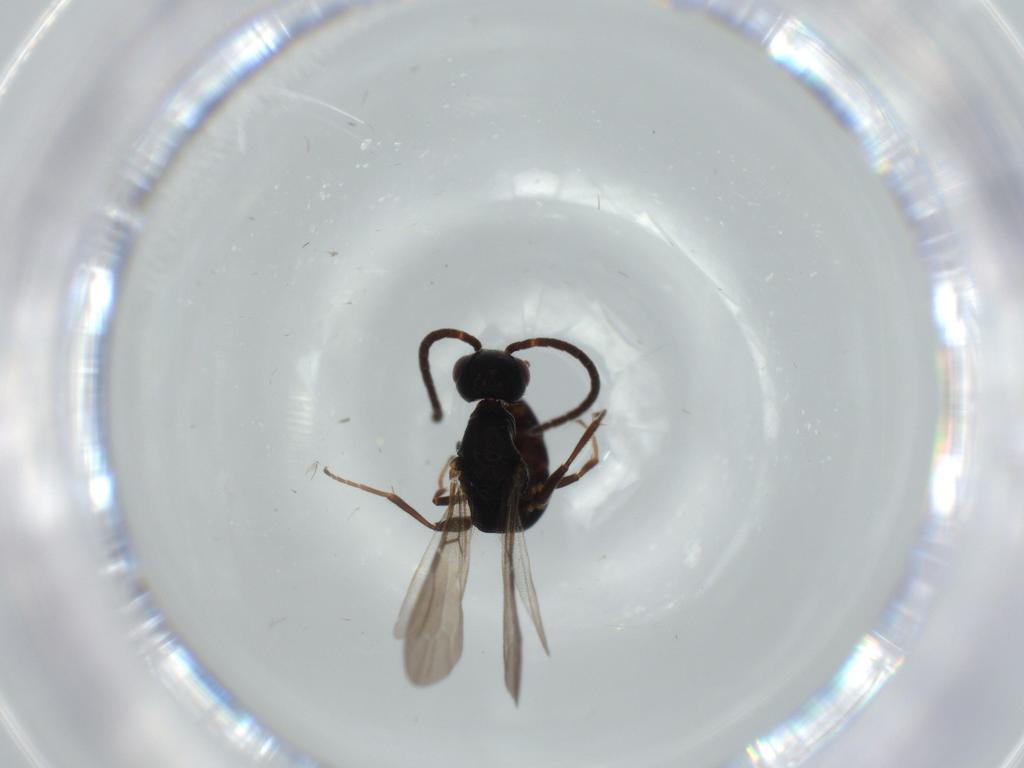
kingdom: Animalia
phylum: Arthropoda
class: Insecta
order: Hymenoptera
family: Bethylidae
